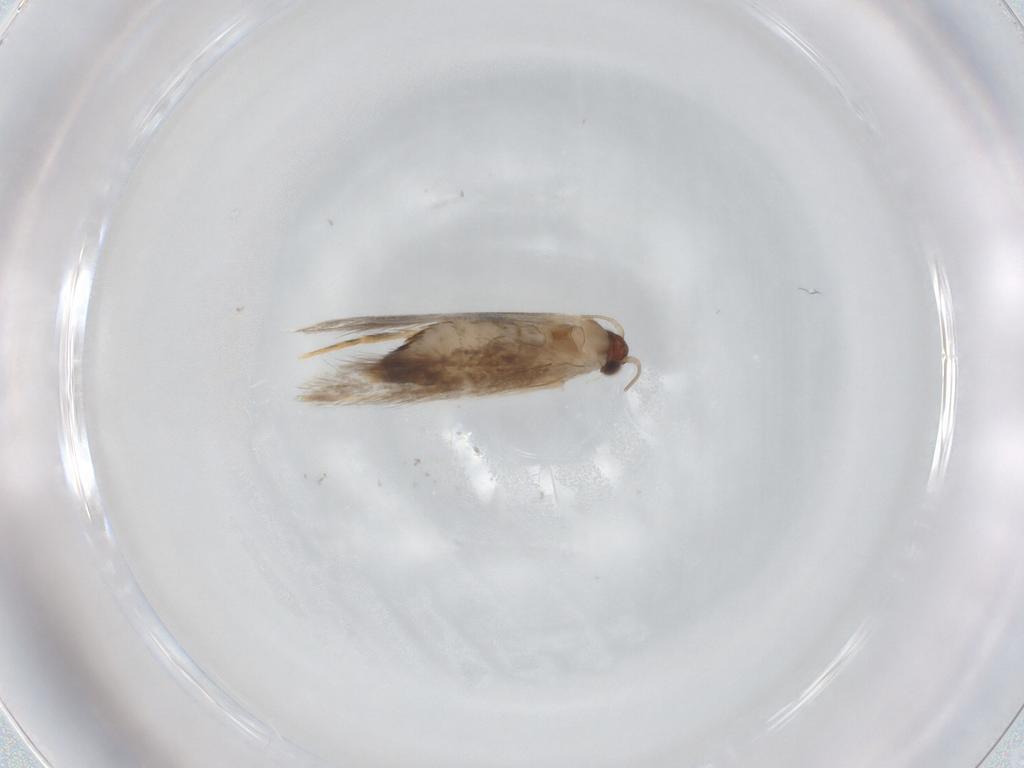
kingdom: Animalia
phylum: Arthropoda
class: Insecta
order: Lepidoptera
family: Tineidae
